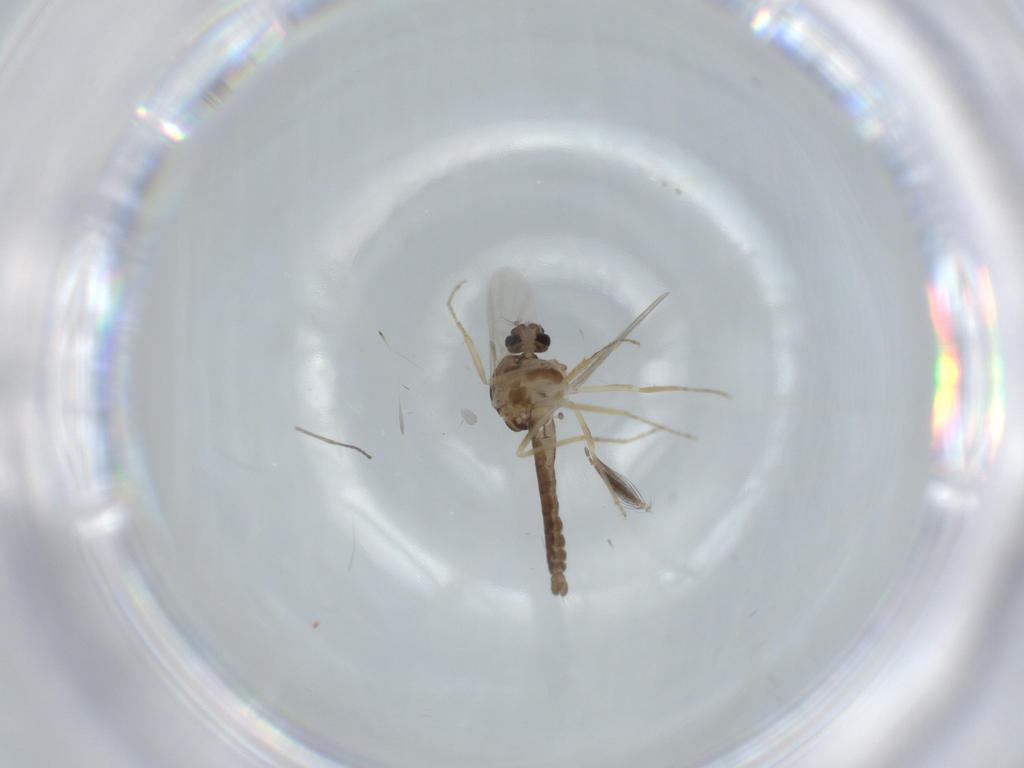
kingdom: Animalia
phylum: Arthropoda
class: Insecta
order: Diptera
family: Ceratopogonidae
